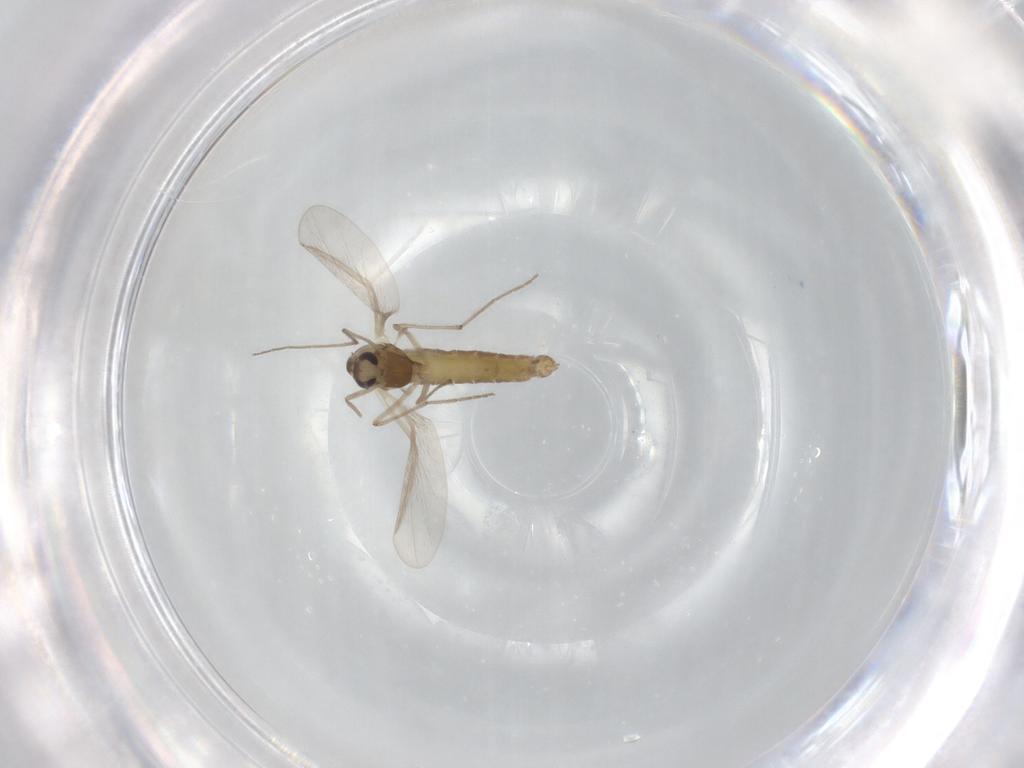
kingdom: Animalia
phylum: Arthropoda
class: Insecta
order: Diptera
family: Chironomidae
